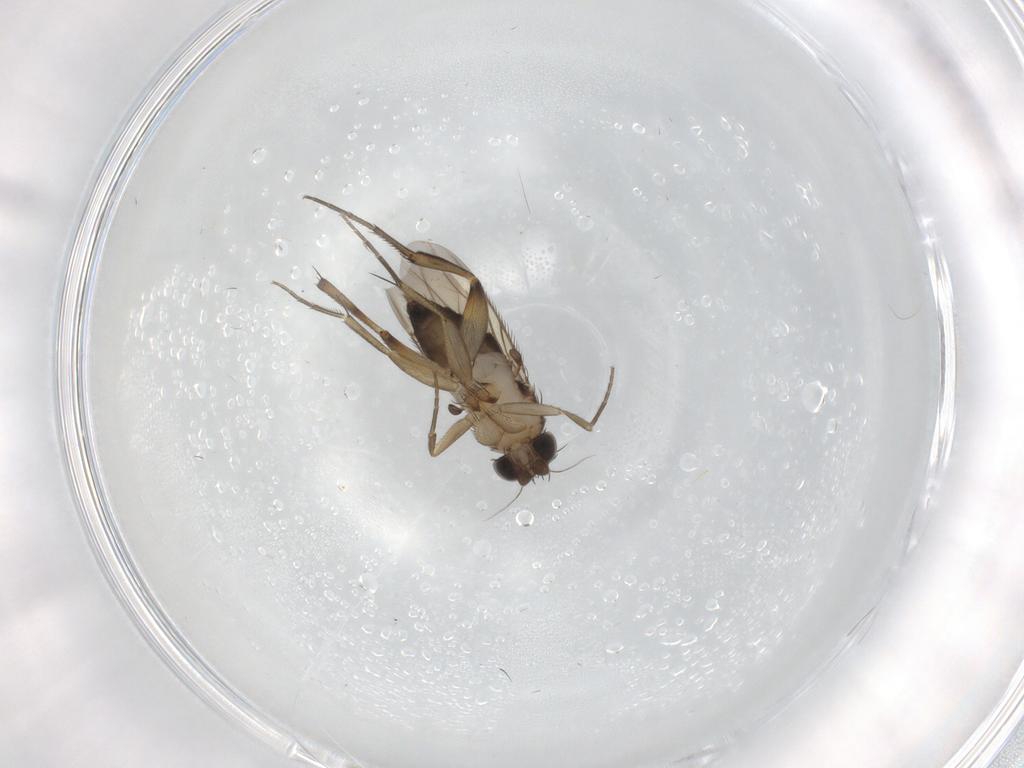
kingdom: Animalia
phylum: Arthropoda
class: Insecta
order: Diptera
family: Phoridae
